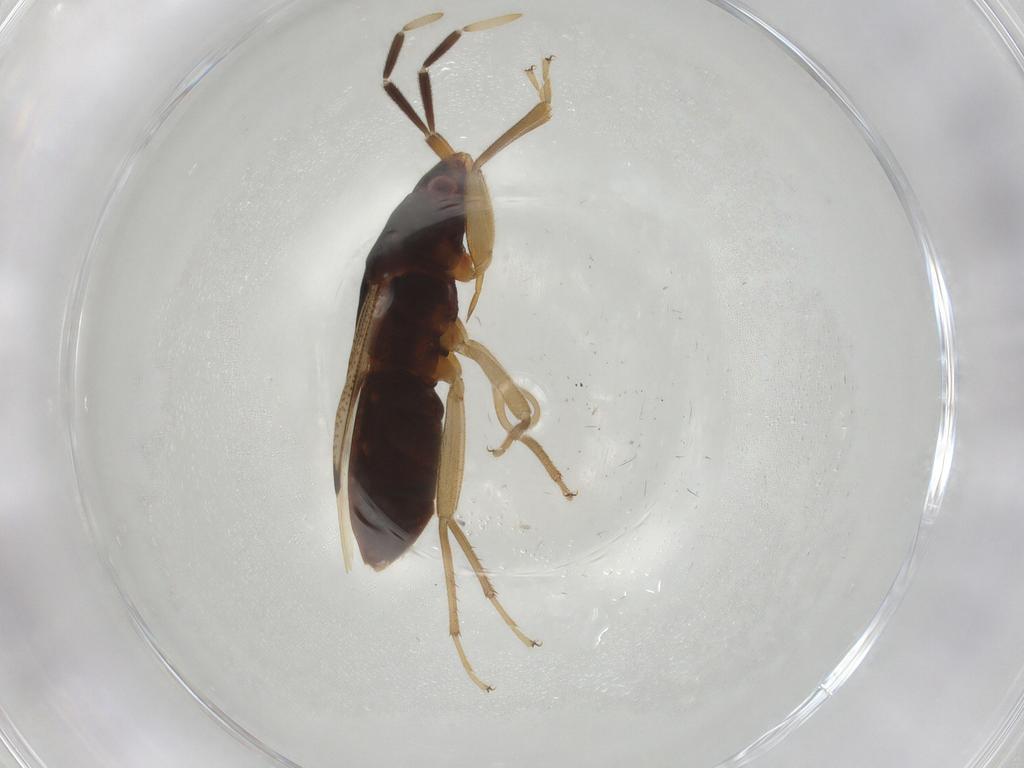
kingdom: Animalia
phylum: Arthropoda
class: Insecta
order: Hemiptera
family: Rhyparochromidae
